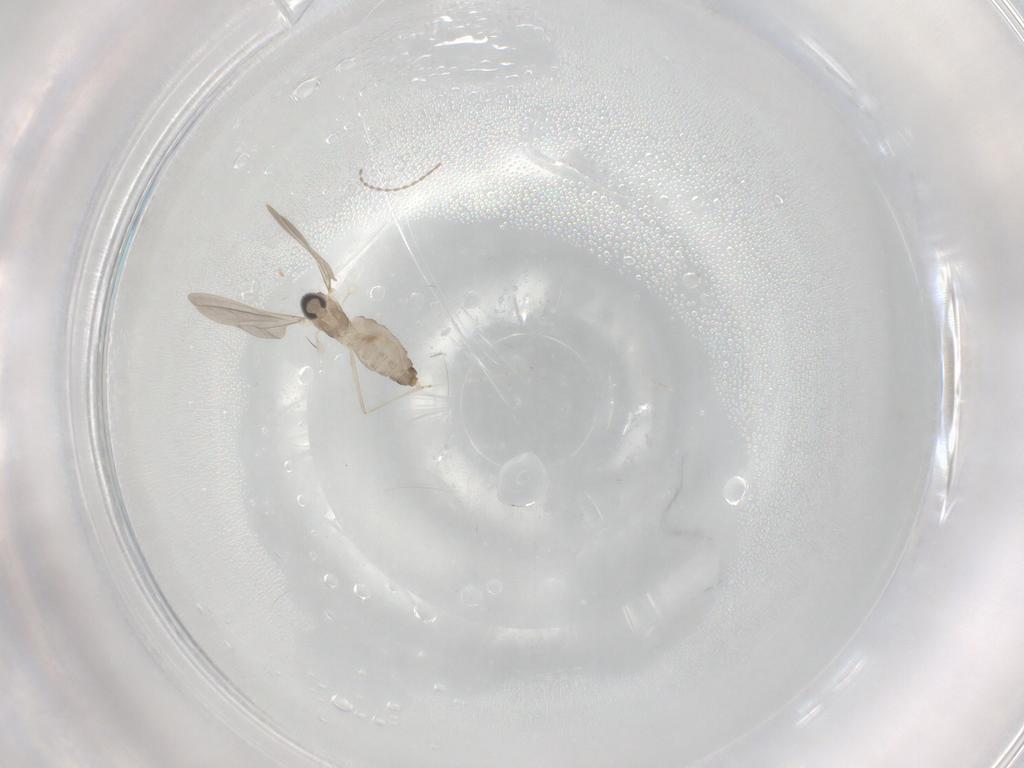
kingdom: Animalia
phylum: Arthropoda
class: Insecta
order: Diptera
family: Cecidomyiidae
